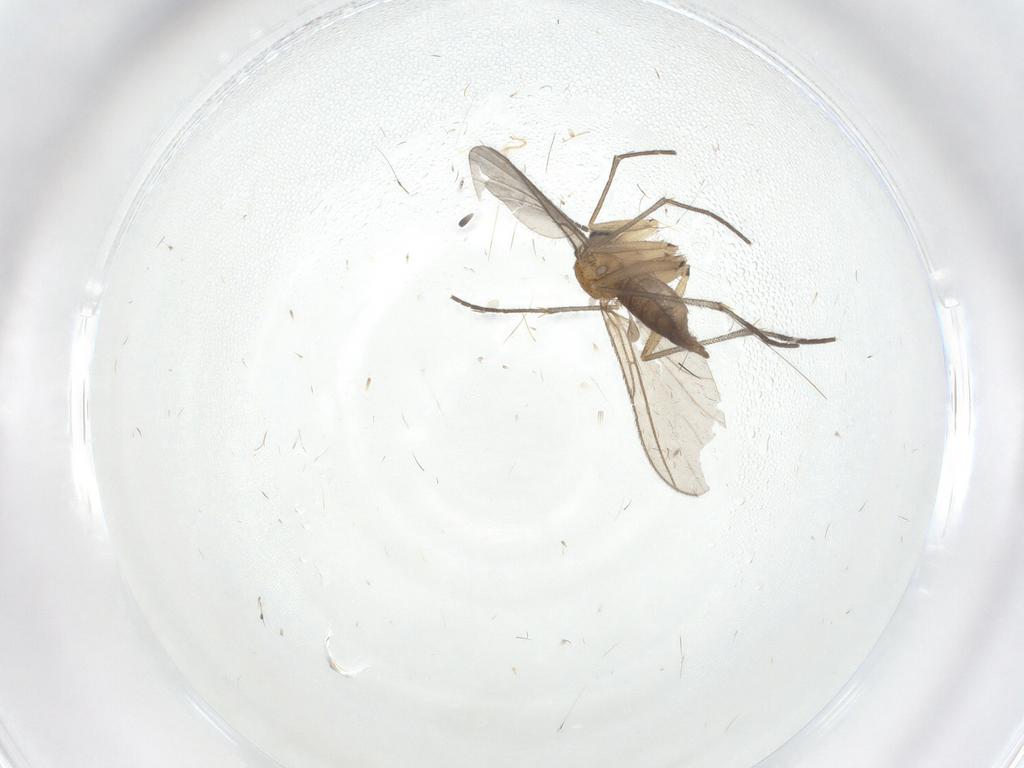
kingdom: Animalia
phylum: Arthropoda
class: Insecta
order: Diptera
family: Sciaridae
